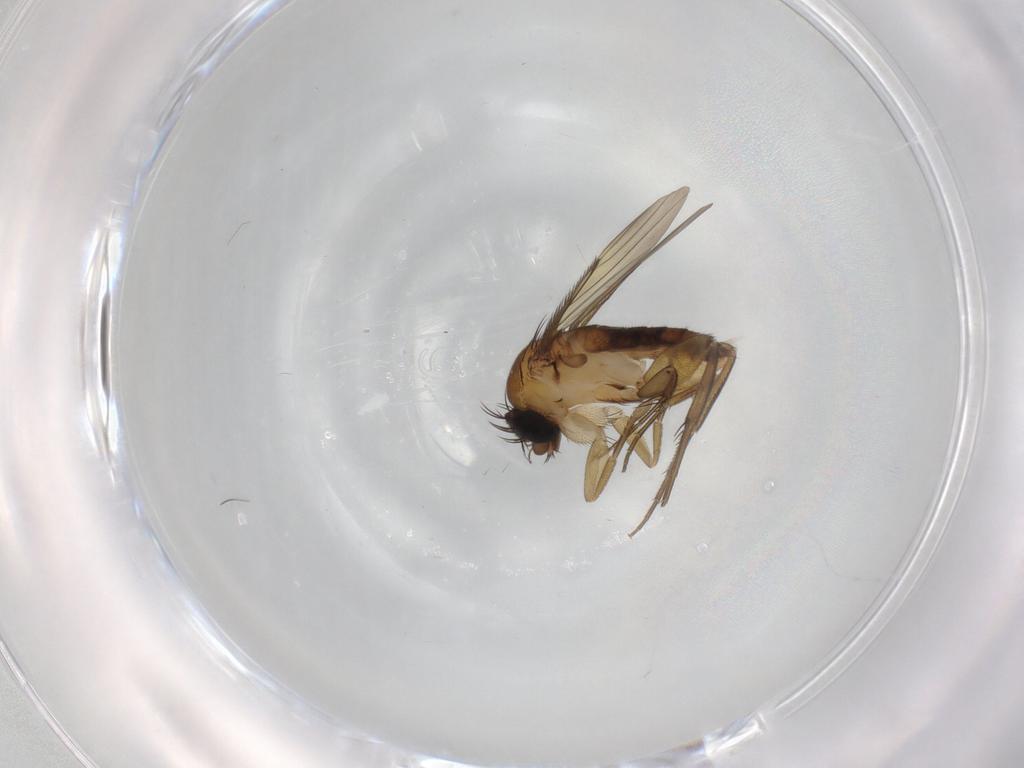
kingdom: Animalia
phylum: Arthropoda
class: Insecta
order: Diptera
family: Phoridae
